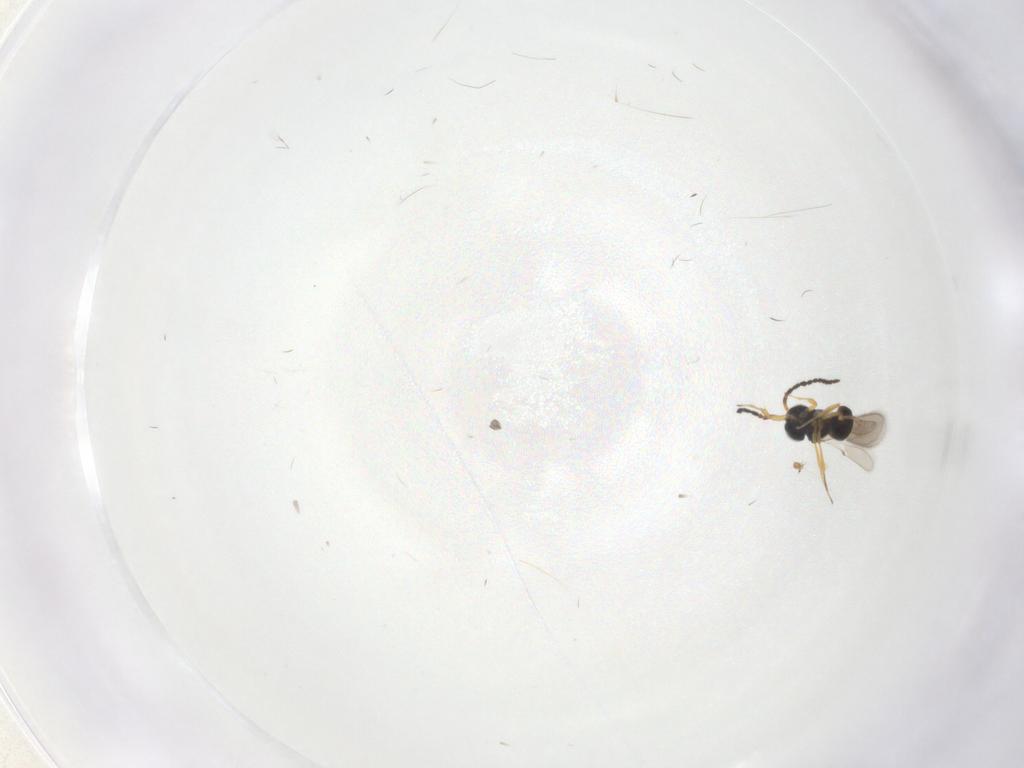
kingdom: Animalia
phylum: Arthropoda
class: Insecta
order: Hymenoptera
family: Scelionidae
